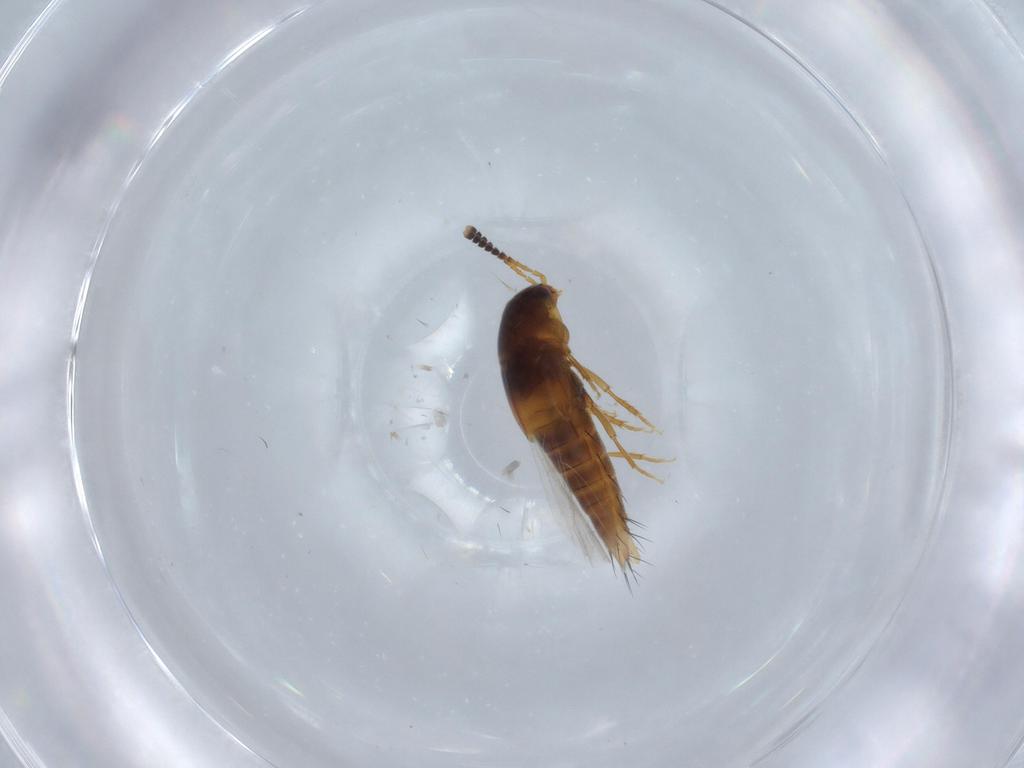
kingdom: Animalia
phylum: Arthropoda
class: Insecta
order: Coleoptera
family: Staphylinidae
